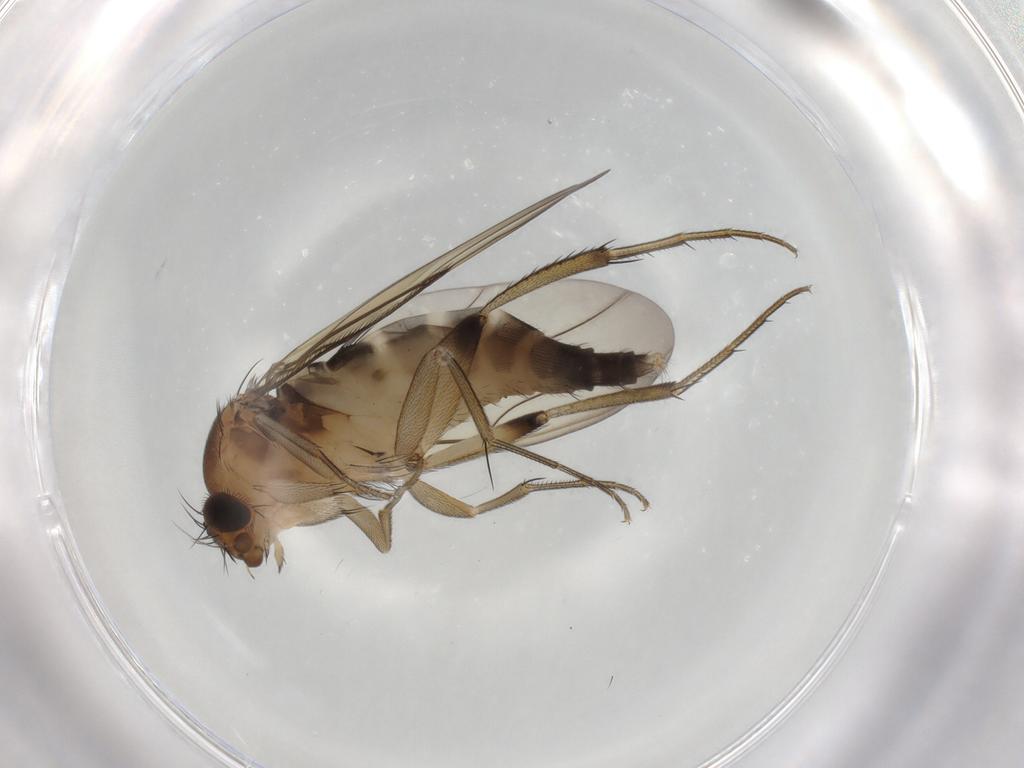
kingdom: Animalia
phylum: Arthropoda
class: Insecta
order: Diptera
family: Phoridae
